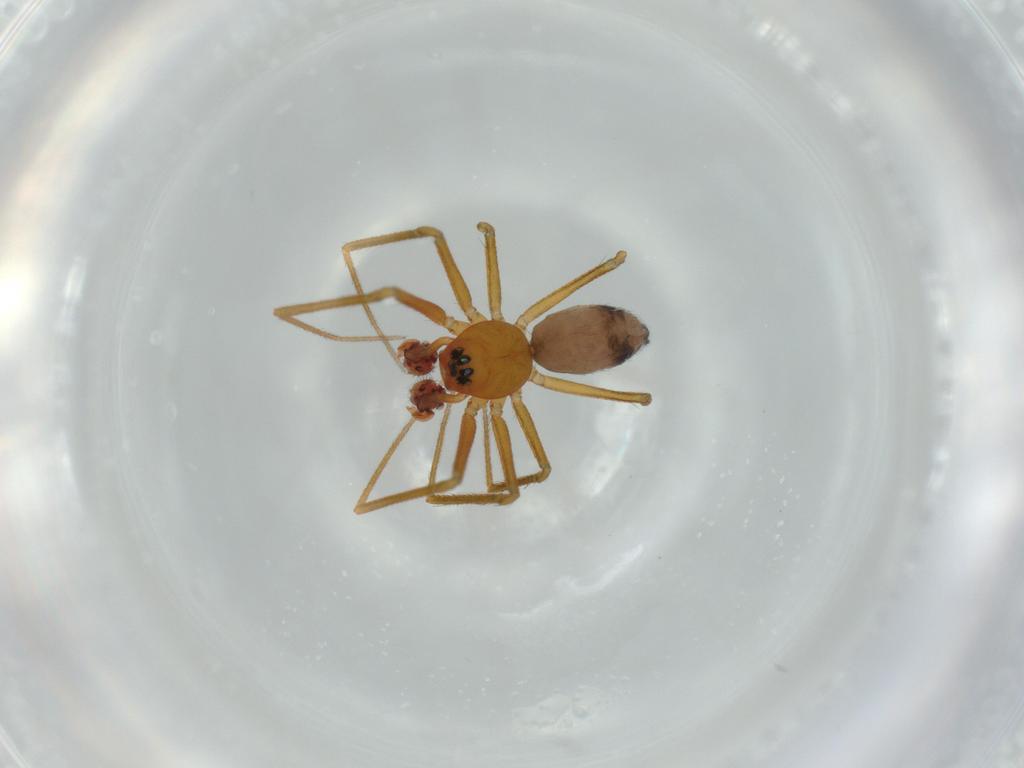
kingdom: Animalia
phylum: Arthropoda
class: Arachnida
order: Araneae
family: Linyphiidae
